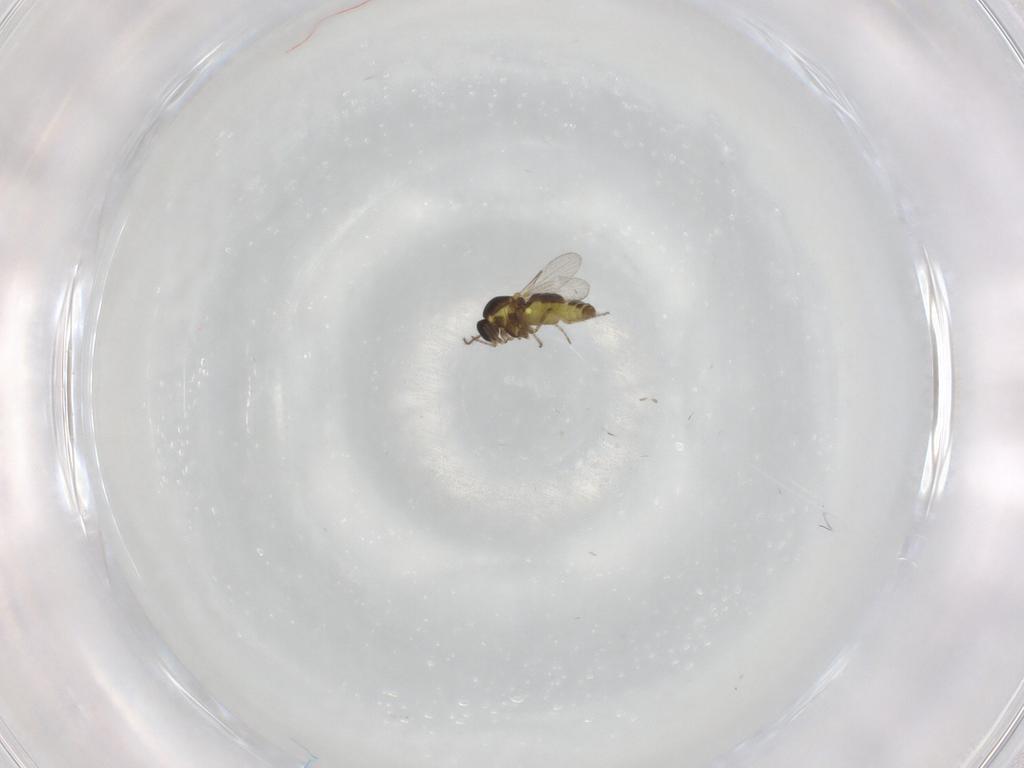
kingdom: Animalia
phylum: Arthropoda
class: Insecta
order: Diptera
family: Ceratopogonidae
